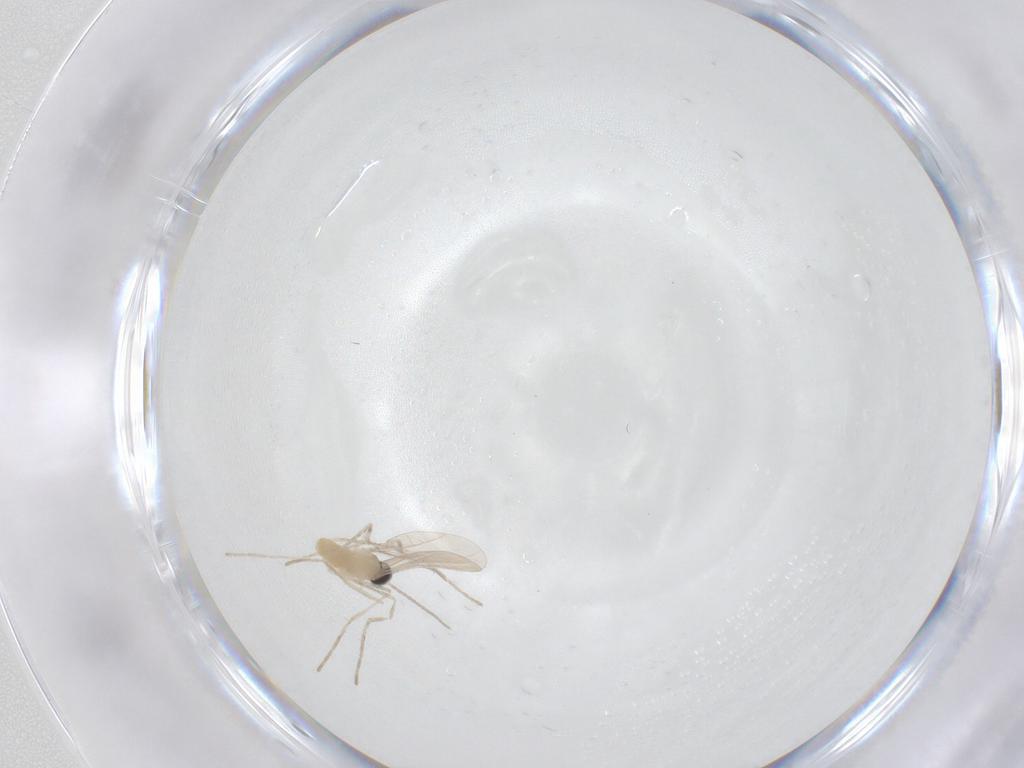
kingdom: Animalia
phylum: Arthropoda
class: Insecta
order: Diptera
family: Cecidomyiidae
